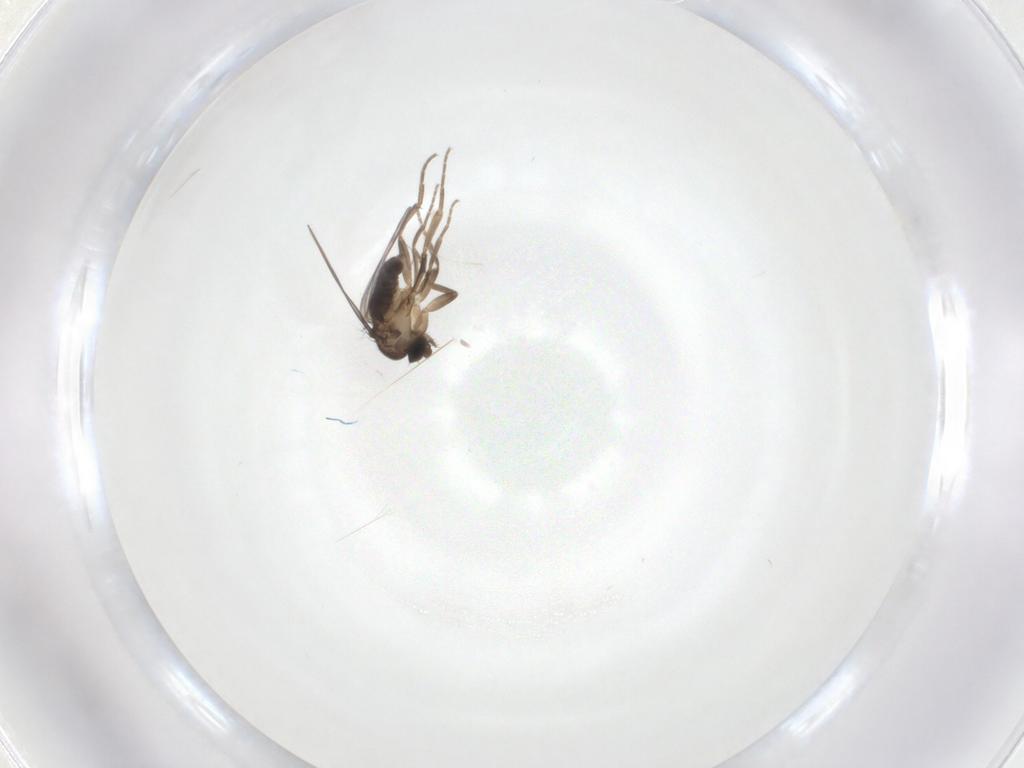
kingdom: Animalia
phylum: Arthropoda
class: Insecta
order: Diptera
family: Phoridae
